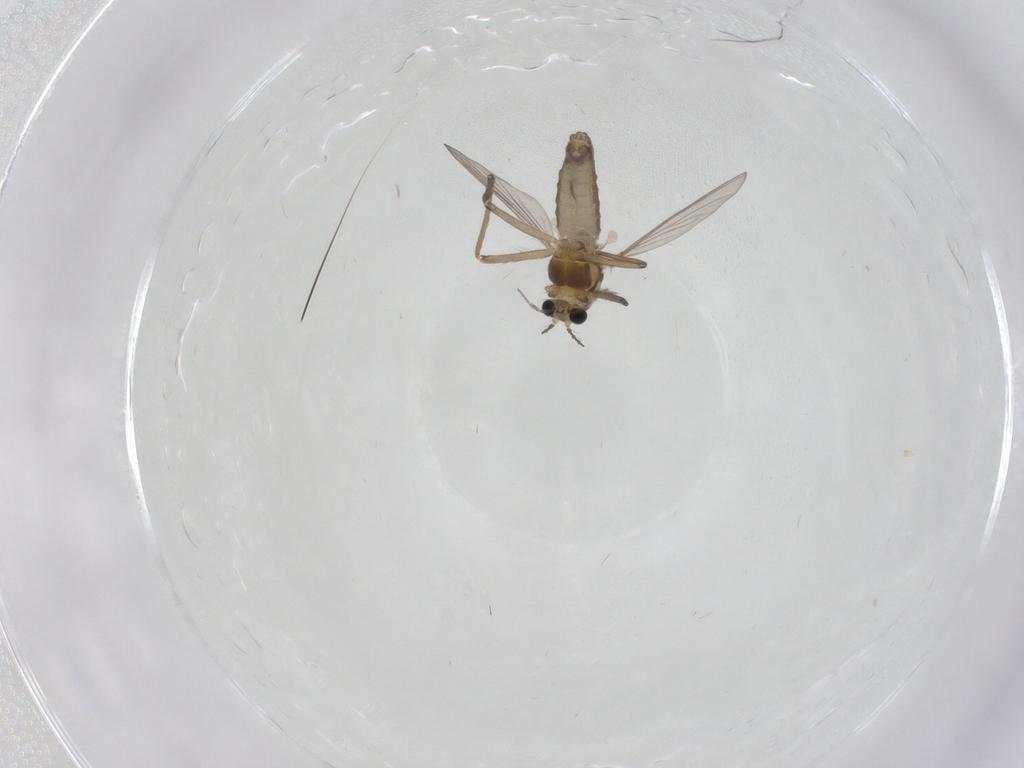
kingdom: Animalia
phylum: Arthropoda
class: Insecta
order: Diptera
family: Chironomidae
